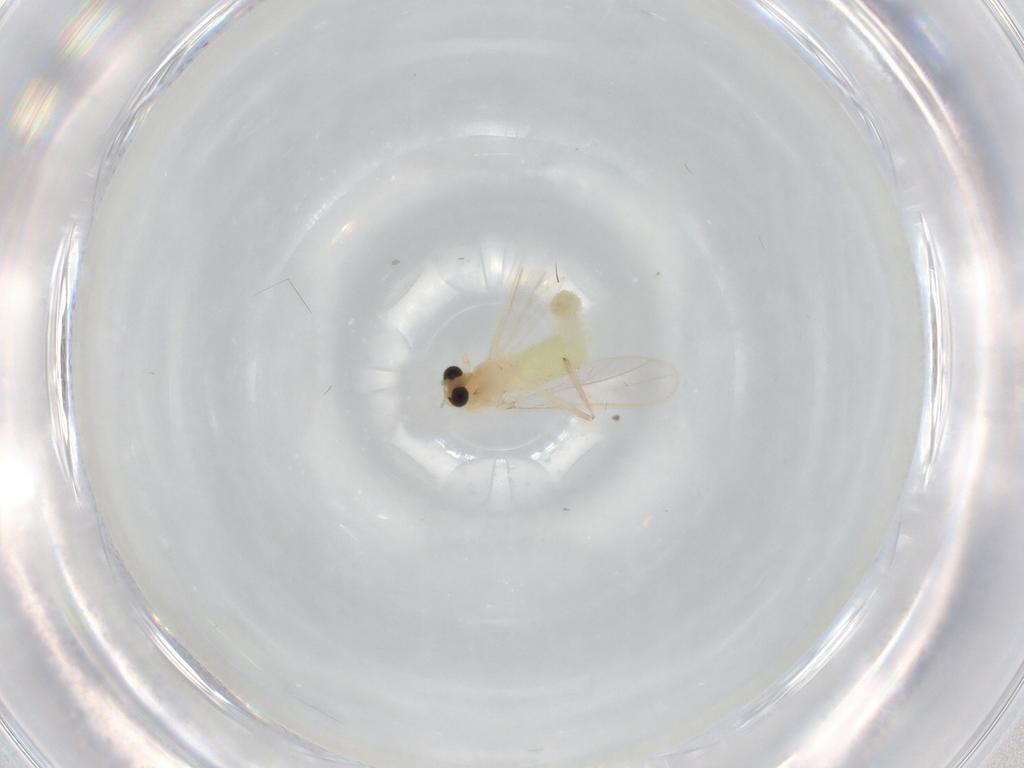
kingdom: Animalia
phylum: Arthropoda
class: Insecta
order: Diptera
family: Chironomidae
